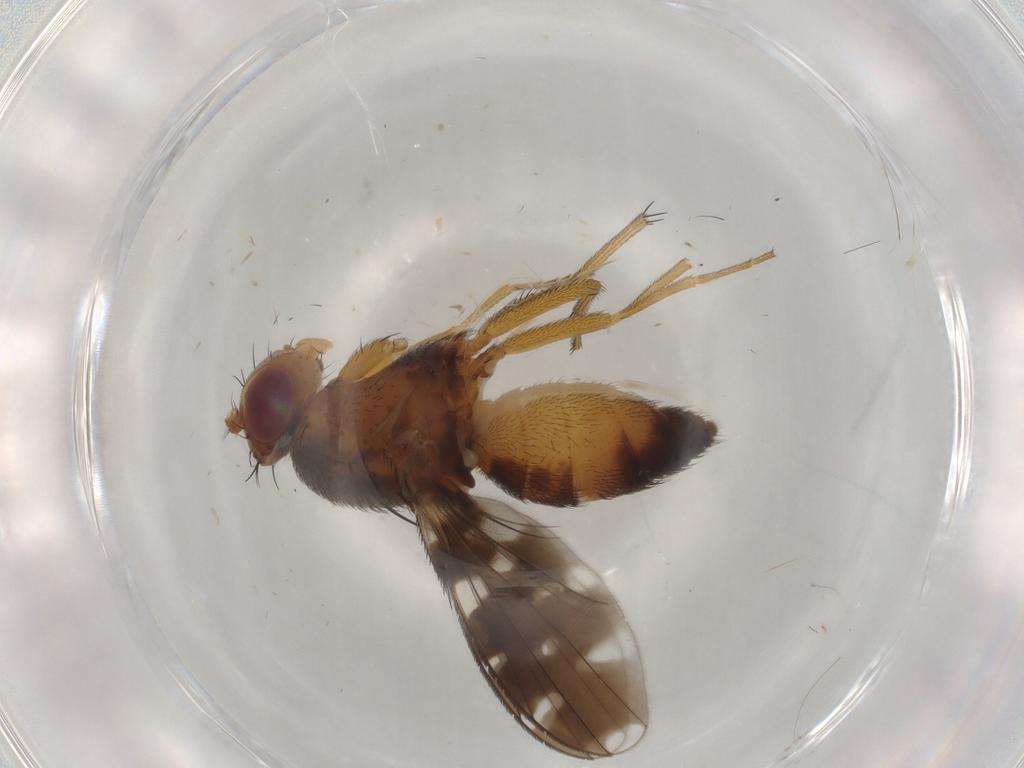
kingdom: Animalia
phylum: Arthropoda
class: Insecta
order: Diptera
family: Ephydridae
